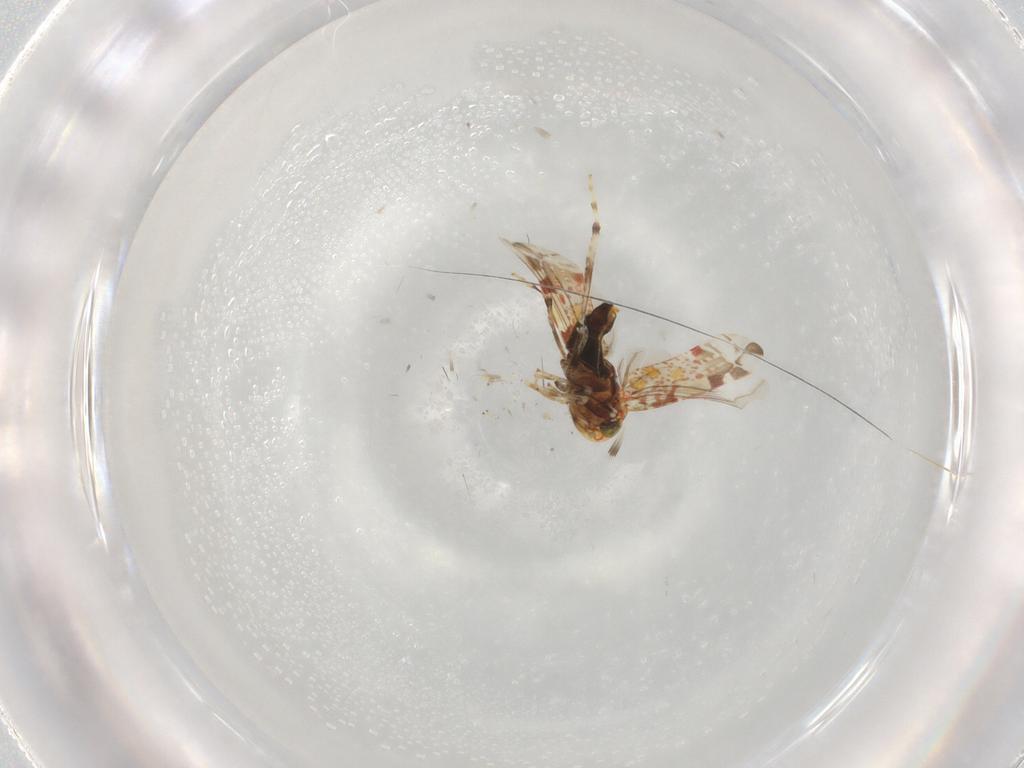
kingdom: Animalia
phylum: Arthropoda
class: Insecta
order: Hemiptera
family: Cicadellidae
